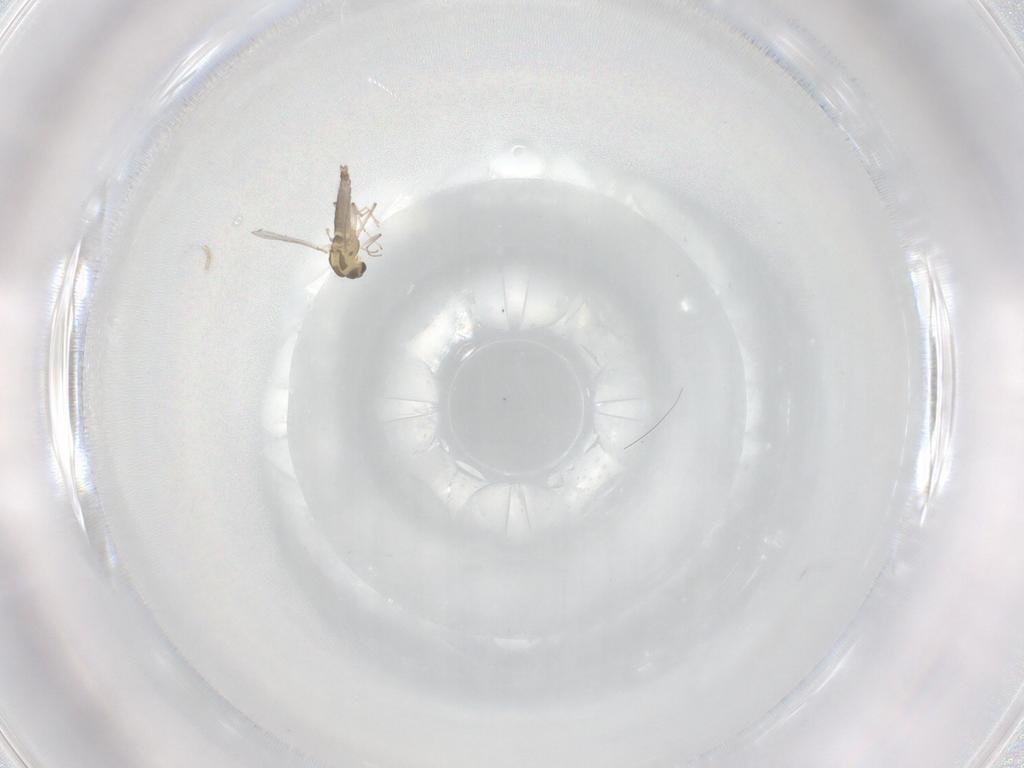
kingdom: Animalia
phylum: Arthropoda
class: Insecta
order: Diptera
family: Chironomidae
